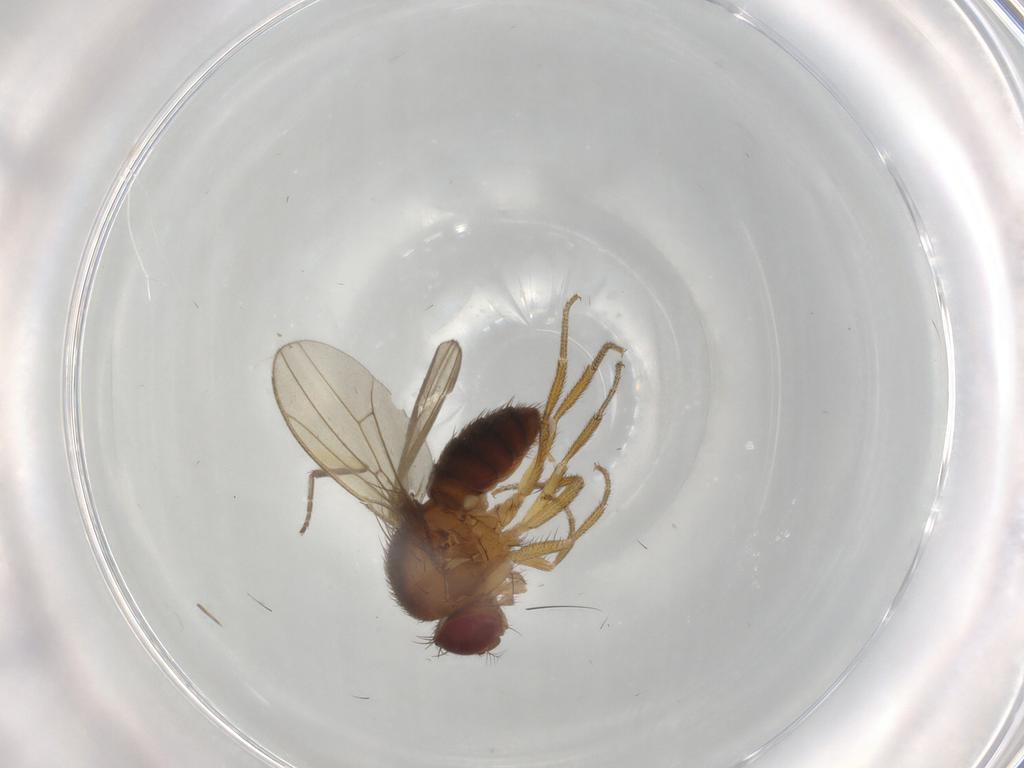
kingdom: Animalia
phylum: Arthropoda
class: Insecta
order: Diptera
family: Drosophilidae
